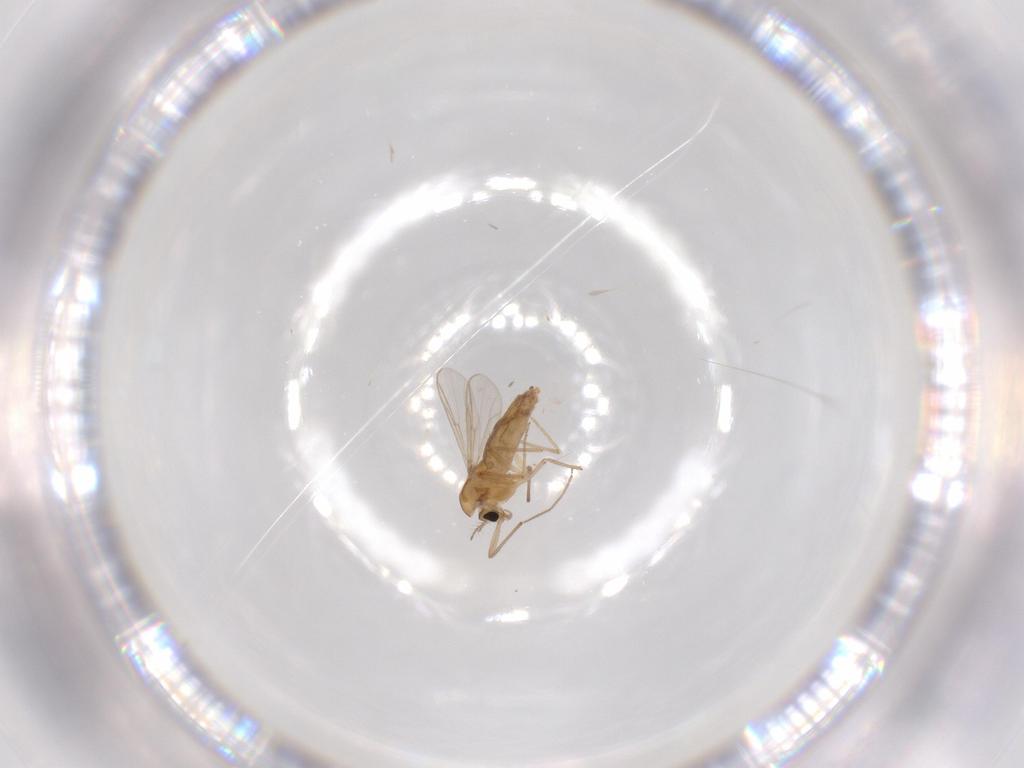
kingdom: Animalia
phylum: Arthropoda
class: Insecta
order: Diptera
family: Chironomidae
